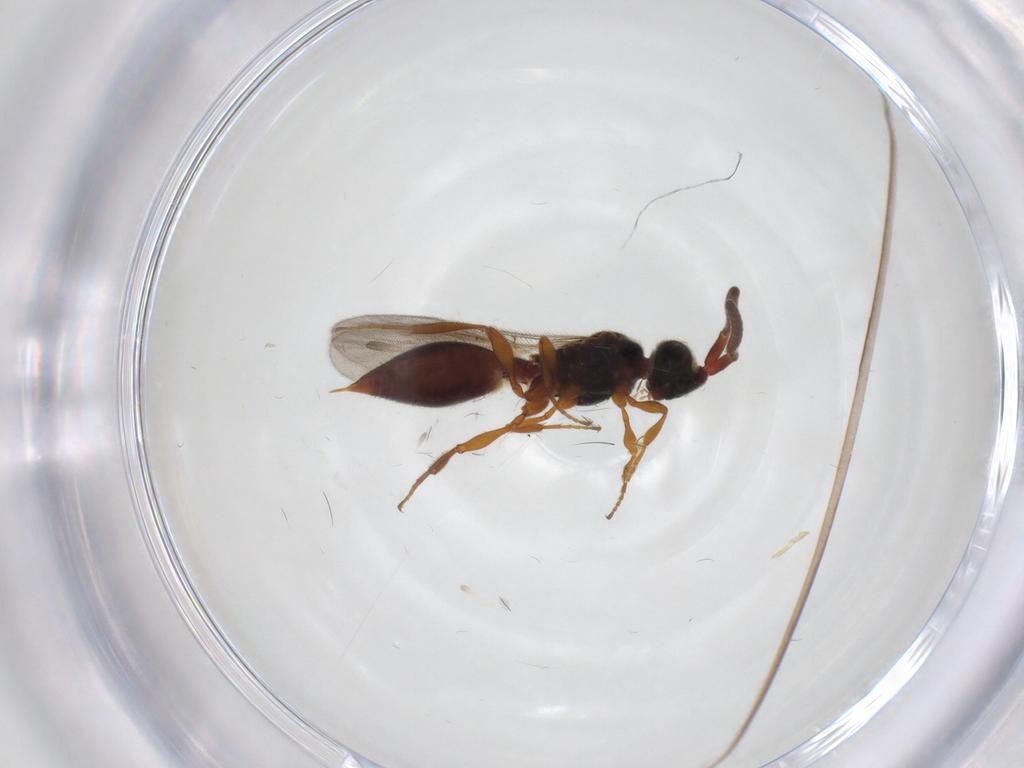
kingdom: Animalia
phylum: Arthropoda
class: Insecta
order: Hymenoptera
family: Diapriidae
